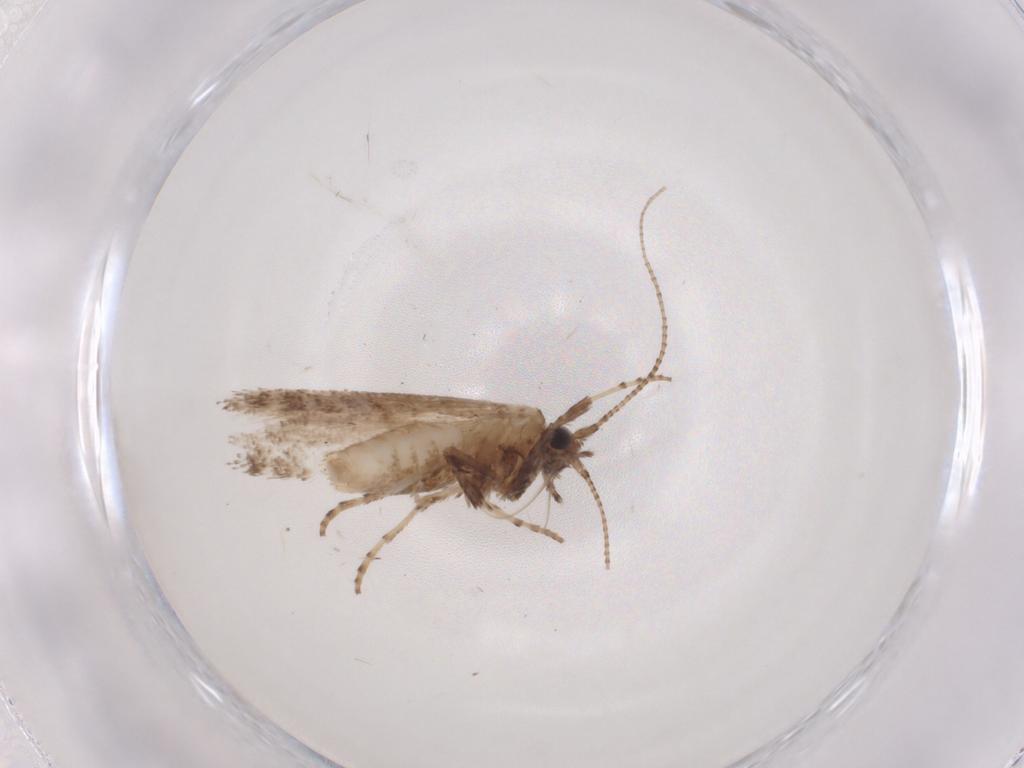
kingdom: Animalia
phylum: Arthropoda
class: Insecta
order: Lepidoptera
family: Gracillariidae
